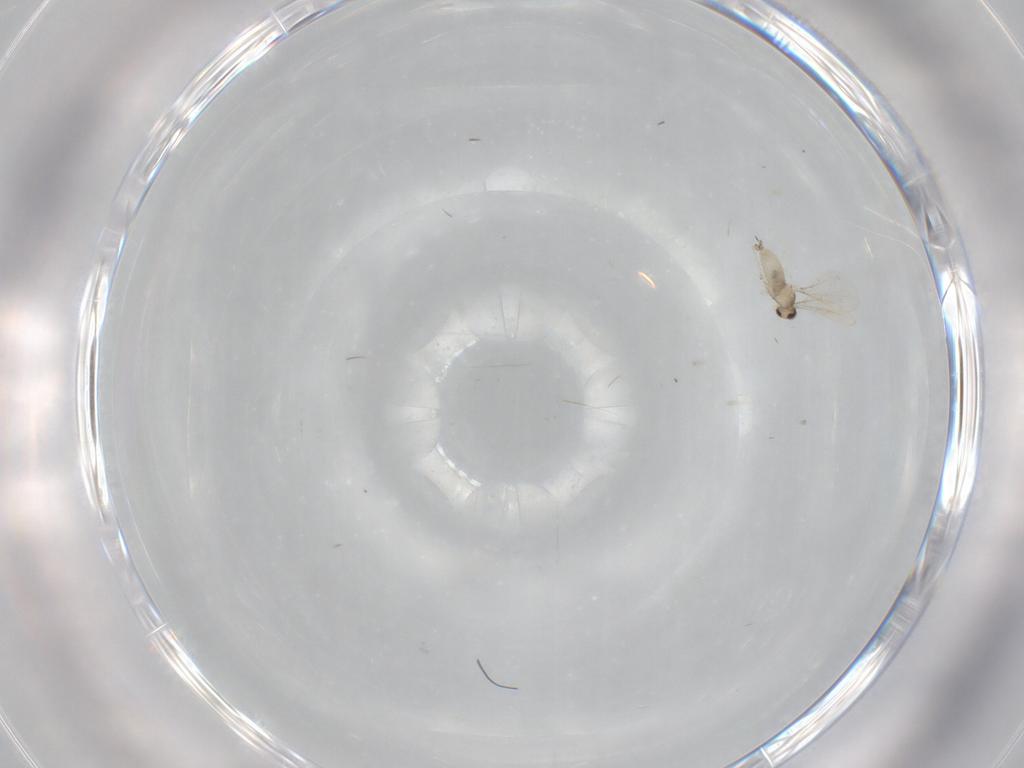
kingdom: Animalia
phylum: Arthropoda
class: Insecta
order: Diptera
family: Cecidomyiidae
